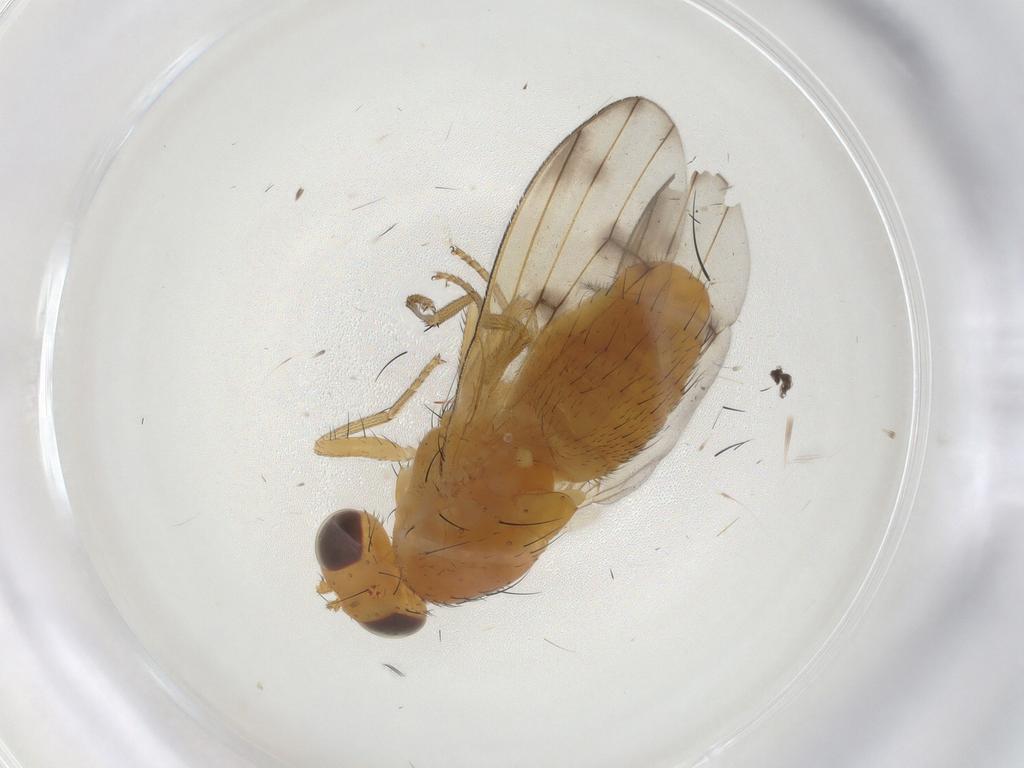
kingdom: Animalia
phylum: Arthropoda
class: Insecta
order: Diptera
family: Lauxaniidae
